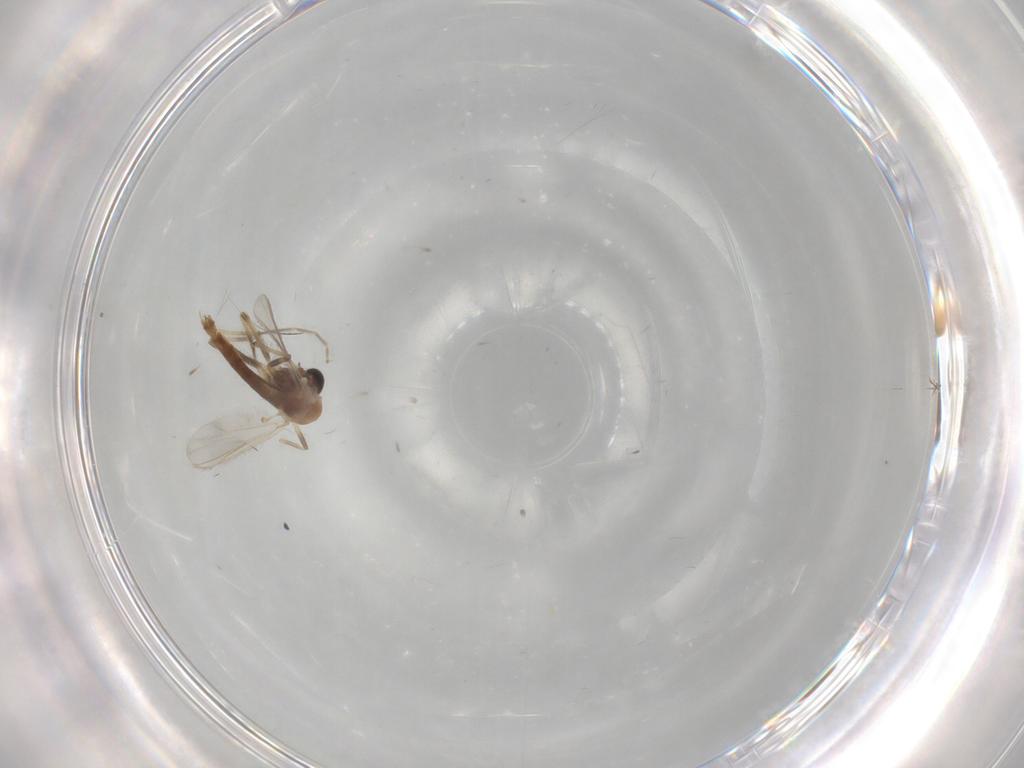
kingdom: Animalia
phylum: Arthropoda
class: Insecta
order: Diptera
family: Chironomidae
